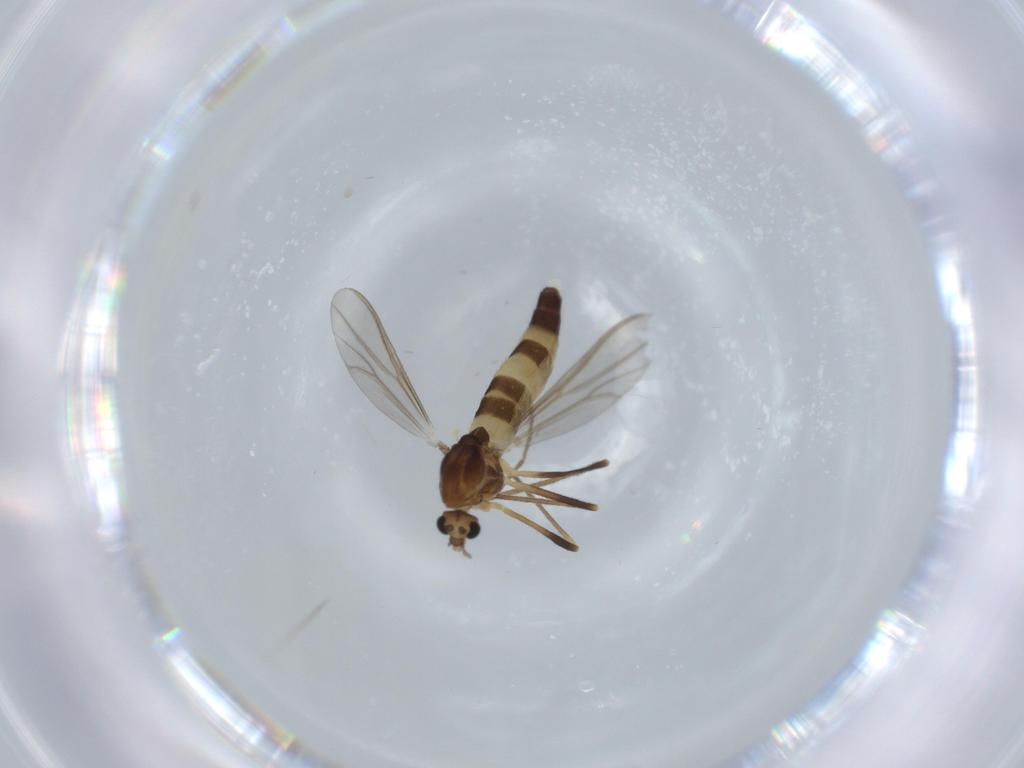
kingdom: Animalia
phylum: Arthropoda
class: Insecta
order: Diptera
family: Chironomidae
